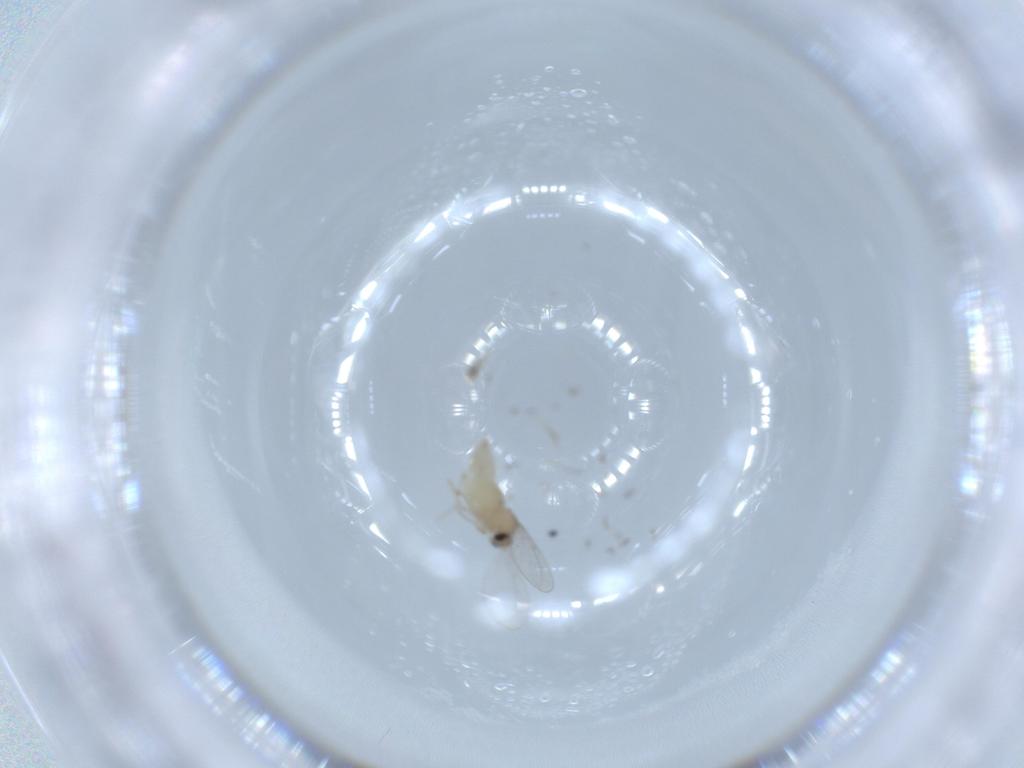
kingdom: Animalia
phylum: Arthropoda
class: Insecta
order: Diptera
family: Cecidomyiidae
